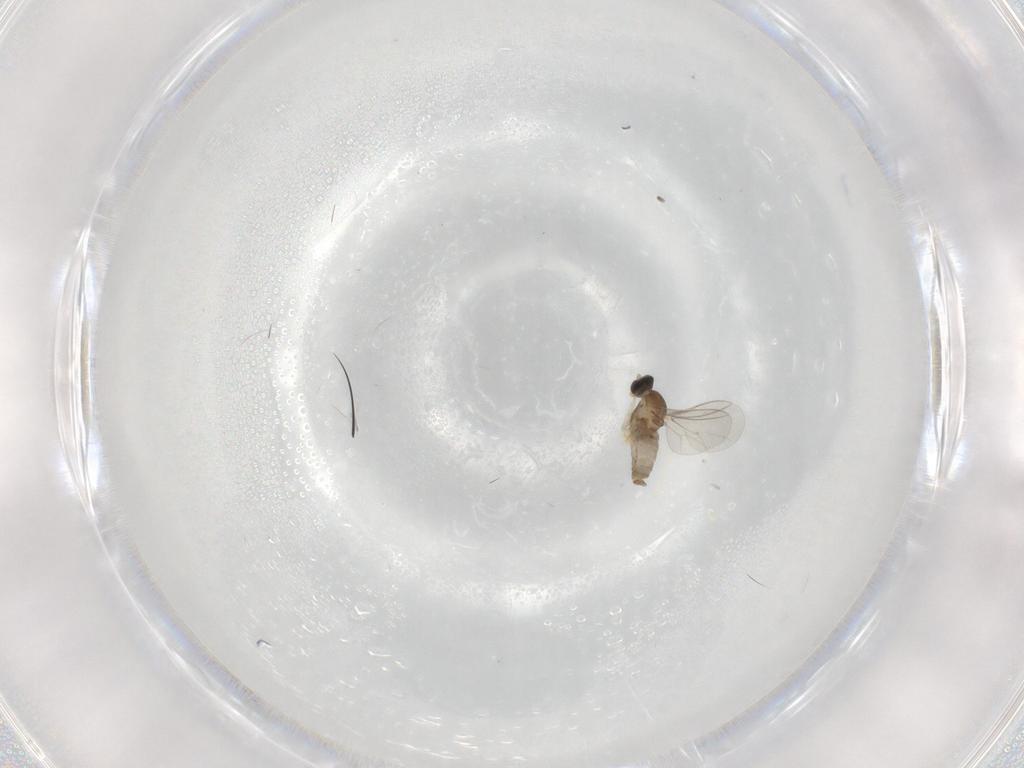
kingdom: Animalia
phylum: Arthropoda
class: Insecta
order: Diptera
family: Cecidomyiidae
